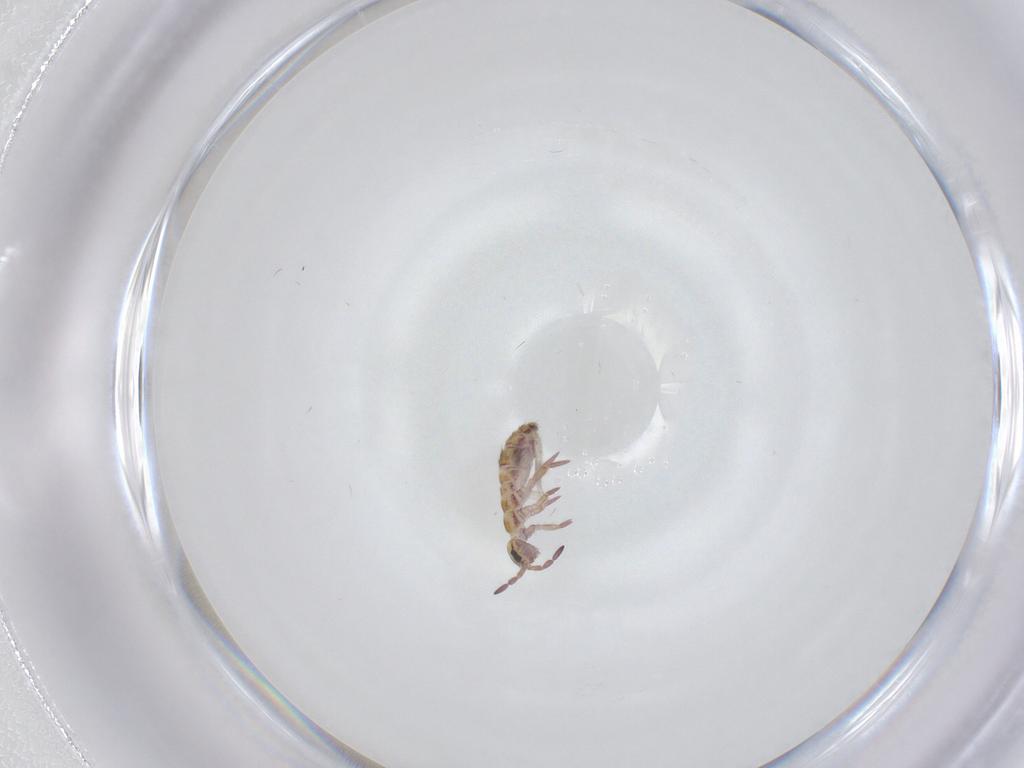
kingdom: Animalia
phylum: Arthropoda
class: Collembola
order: Entomobryomorpha
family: Isotomidae
